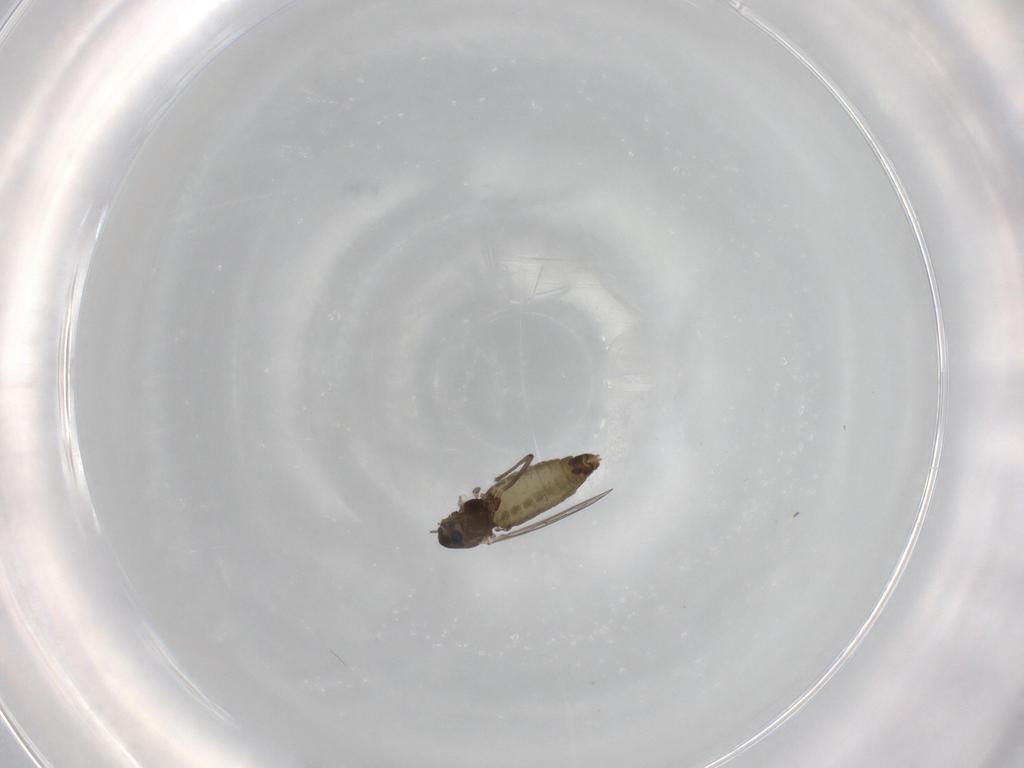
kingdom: Animalia
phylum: Arthropoda
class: Insecta
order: Diptera
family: Chironomidae
